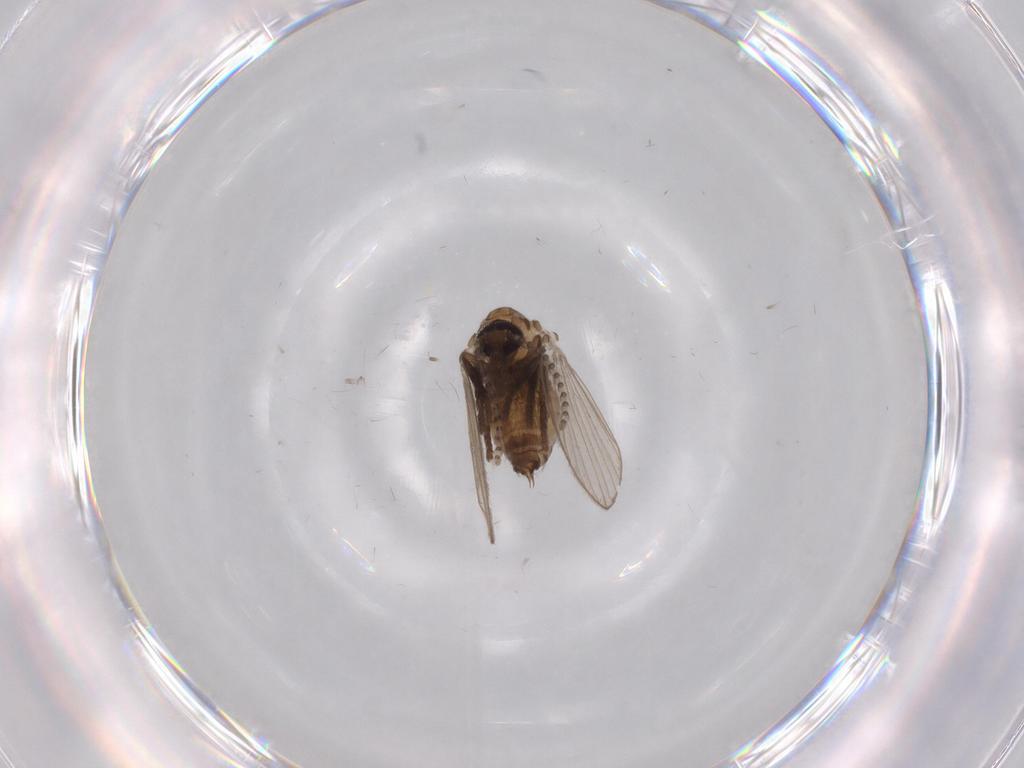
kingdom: Animalia
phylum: Arthropoda
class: Insecta
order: Diptera
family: Psychodidae
